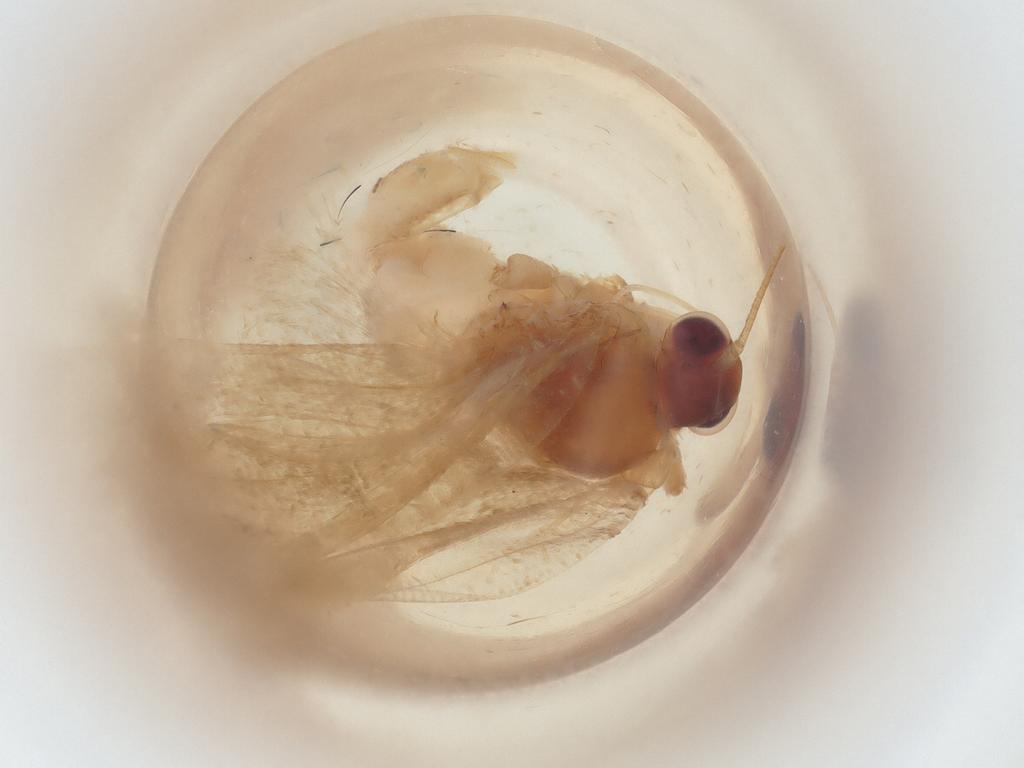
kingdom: Animalia
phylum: Arthropoda
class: Insecta
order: Lepidoptera
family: Tortricidae
